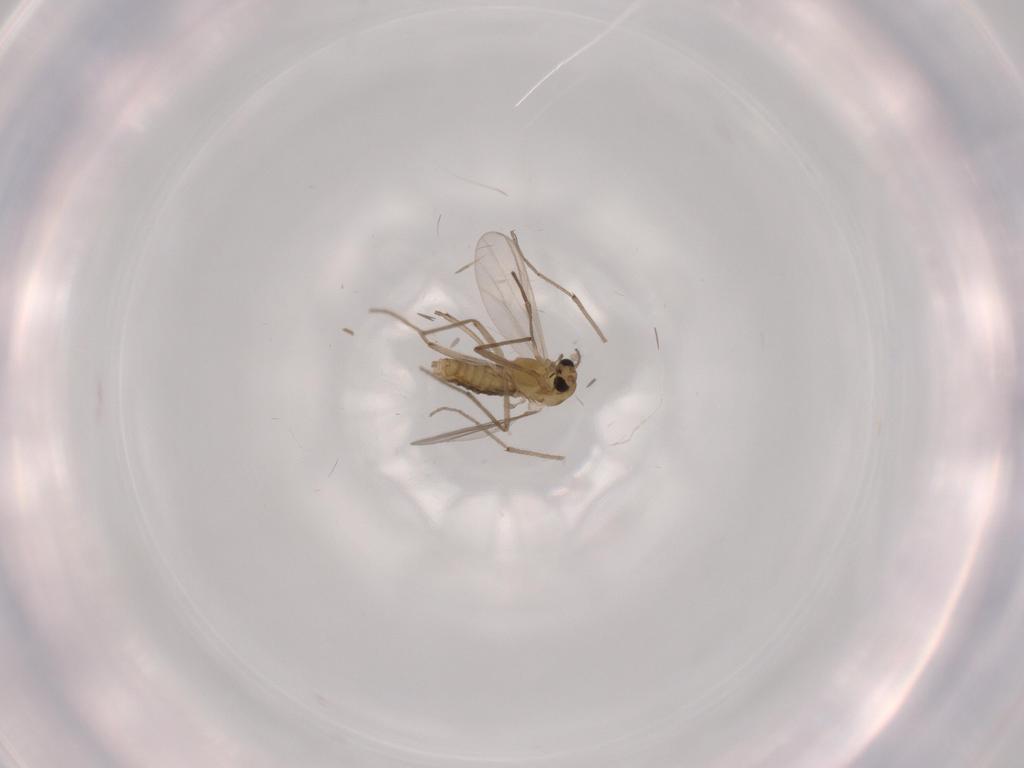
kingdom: Animalia
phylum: Arthropoda
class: Insecta
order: Diptera
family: Chironomidae
